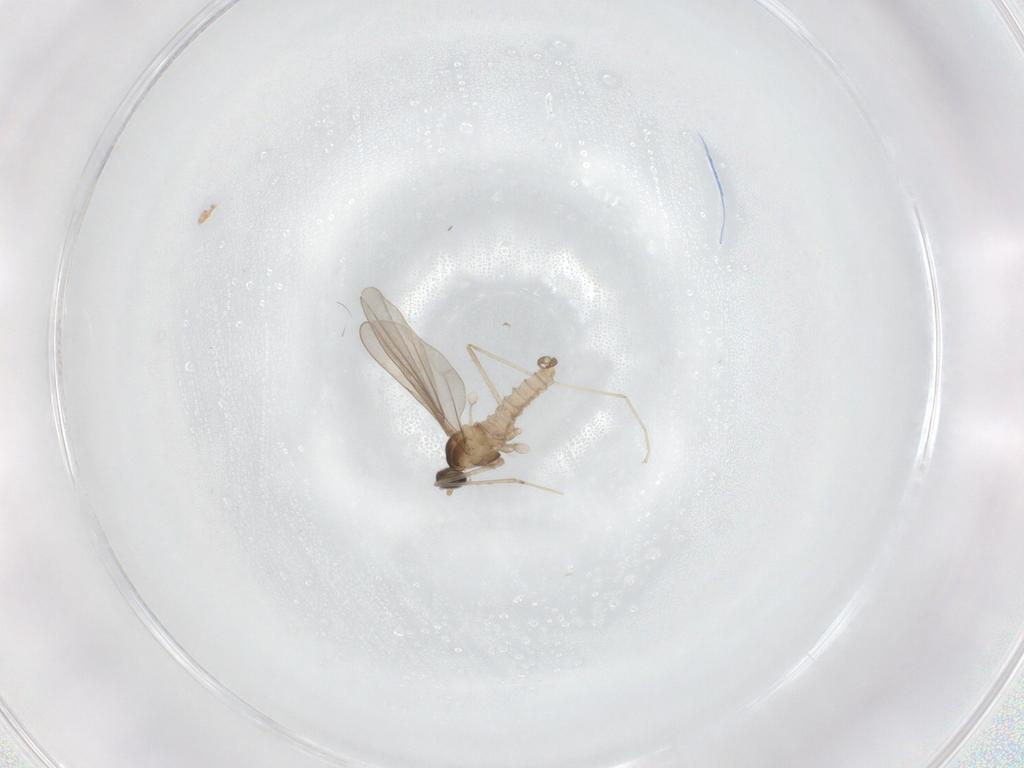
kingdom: Animalia
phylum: Arthropoda
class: Insecta
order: Diptera
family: Cecidomyiidae
